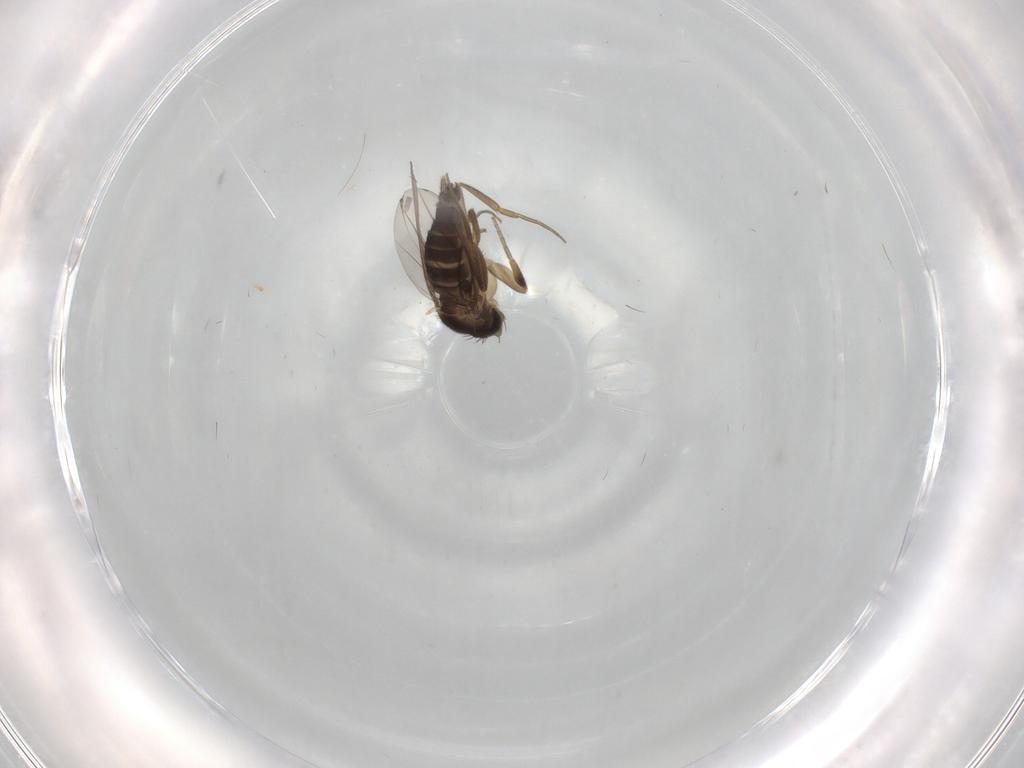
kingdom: Animalia
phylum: Arthropoda
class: Insecta
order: Diptera
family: Phoridae
